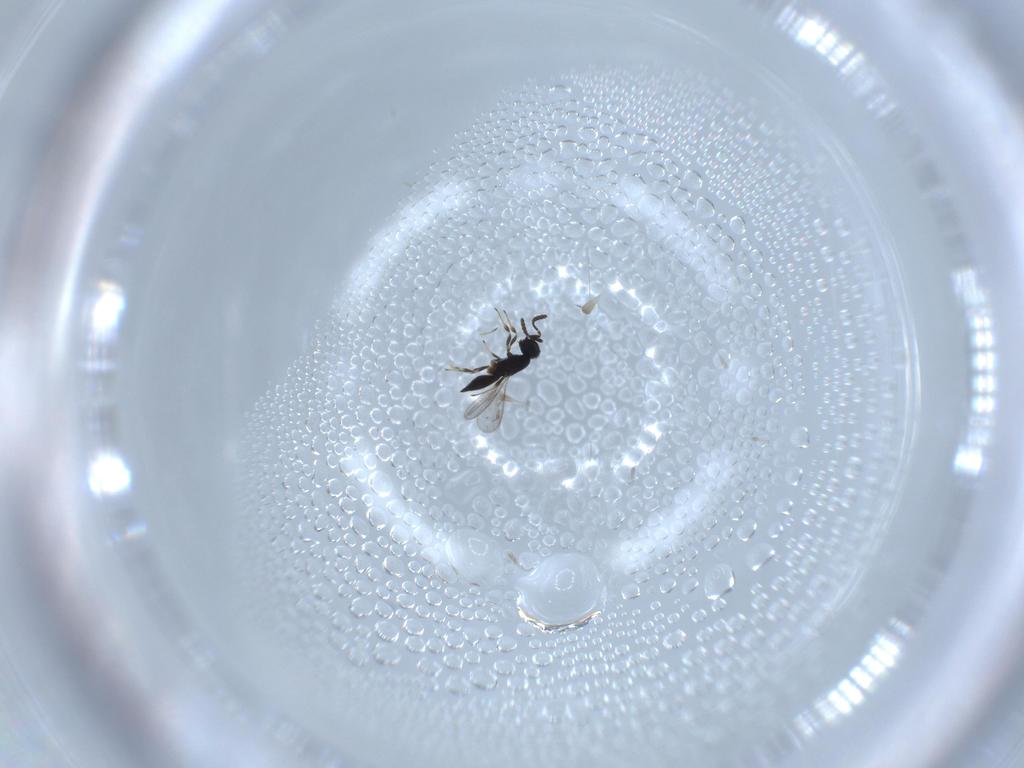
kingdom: Animalia
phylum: Arthropoda
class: Insecta
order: Hymenoptera
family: Scelionidae
